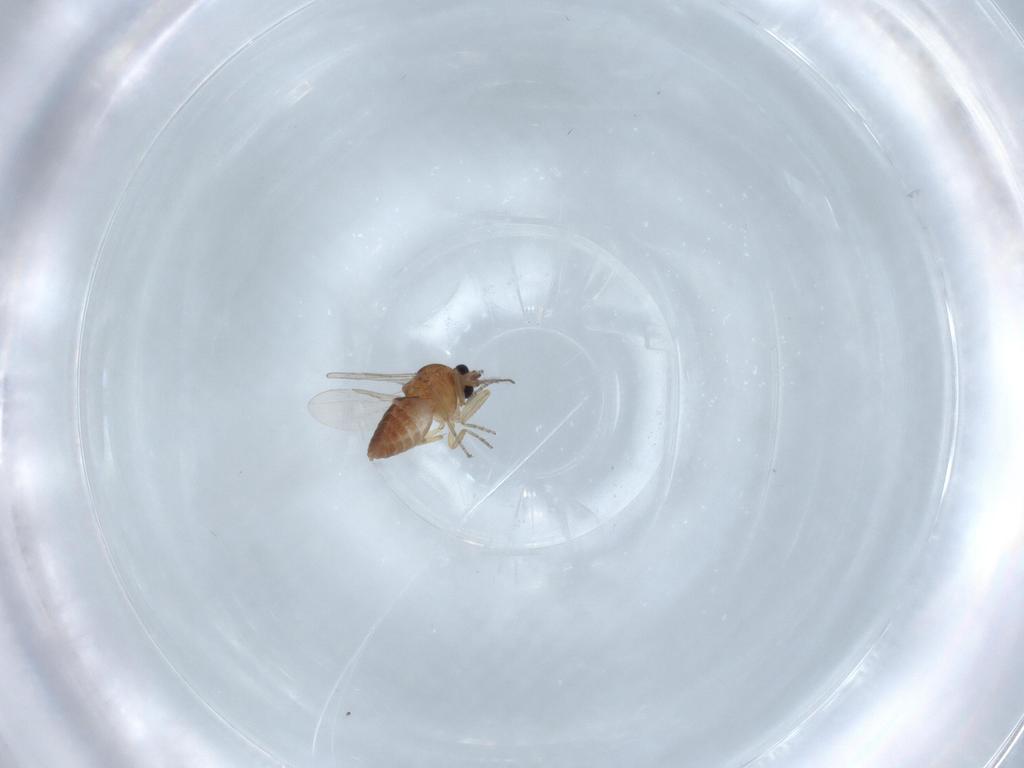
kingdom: Animalia
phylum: Arthropoda
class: Insecta
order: Diptera
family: Ceratopogonidae
